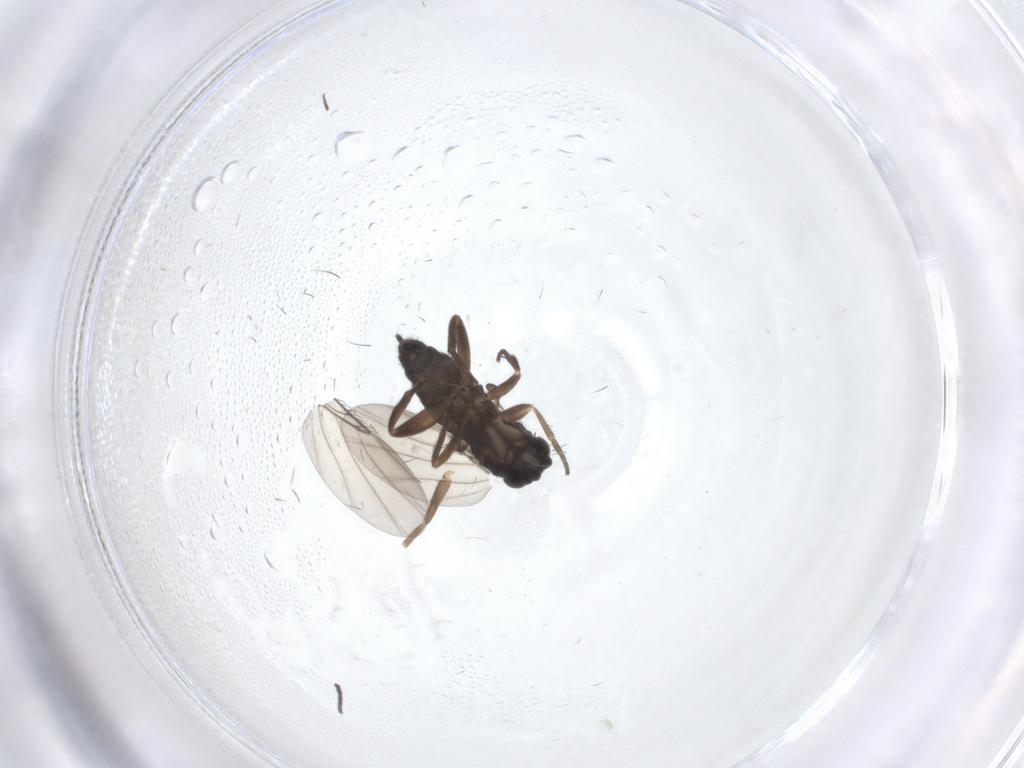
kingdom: Animalia
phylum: Arthropoda
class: Insecta
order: Diptera
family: Phoridae
